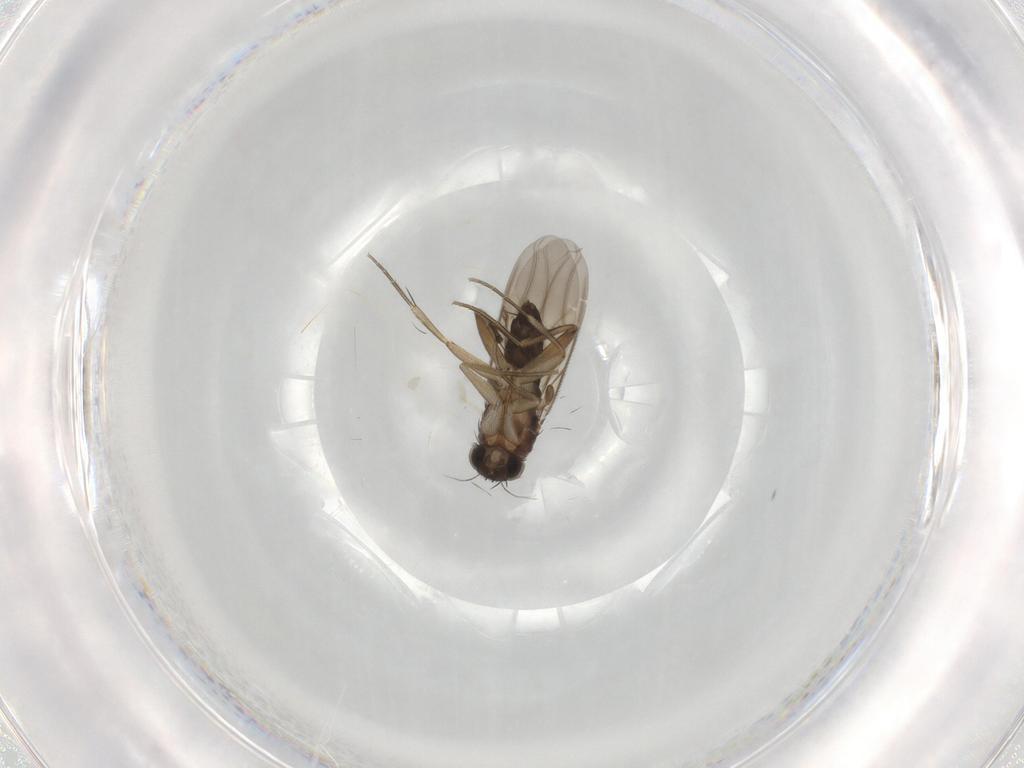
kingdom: Animalia
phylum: Arthropoda
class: Insecta
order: Diptera
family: Phoridae
